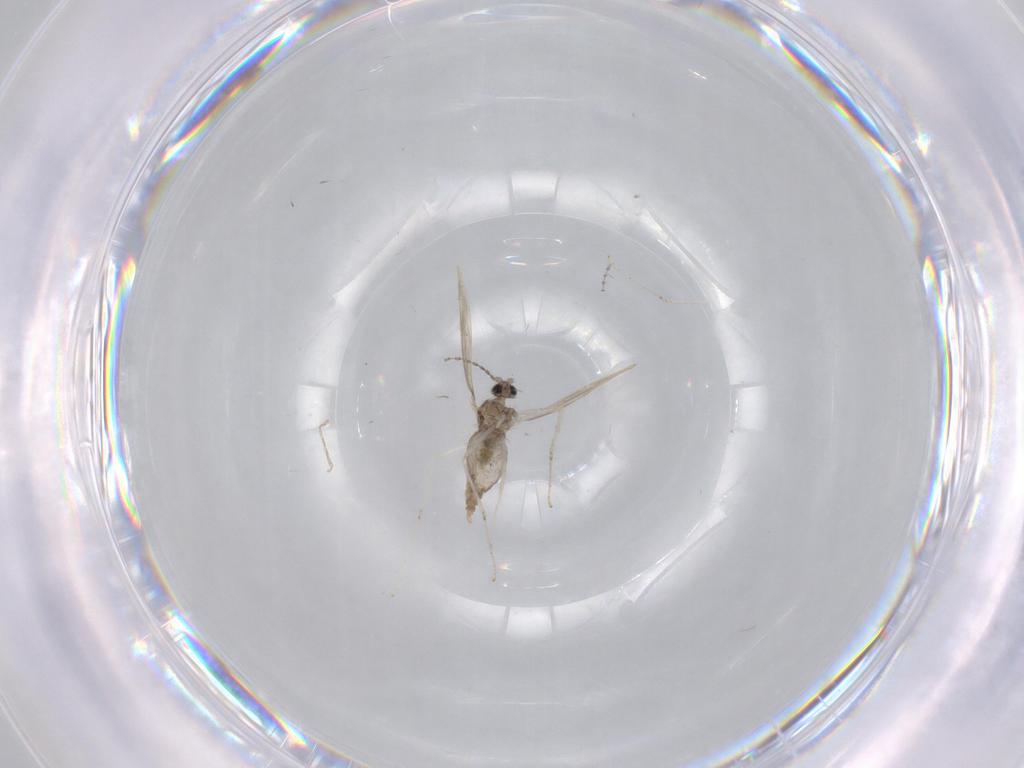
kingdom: Animalia
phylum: Arthropoda
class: Insecta
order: Diptera
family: Cecidomyiidae
